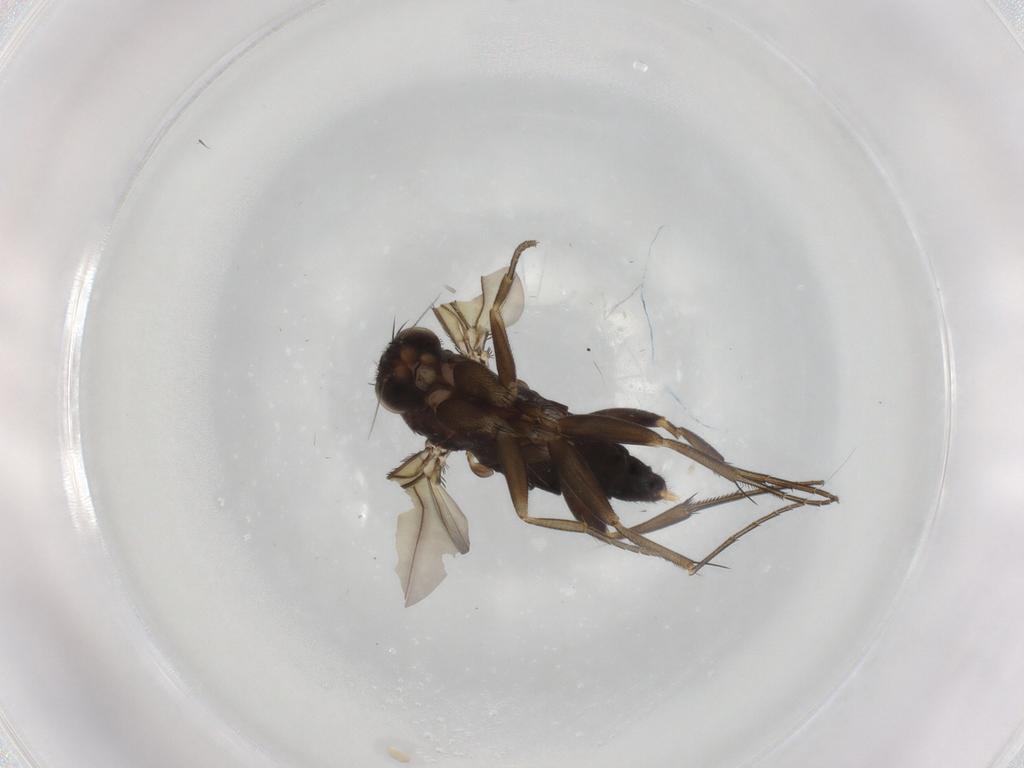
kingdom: Animalia
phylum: Arthropoda
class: Insecta
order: Diptera
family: Phoridae
